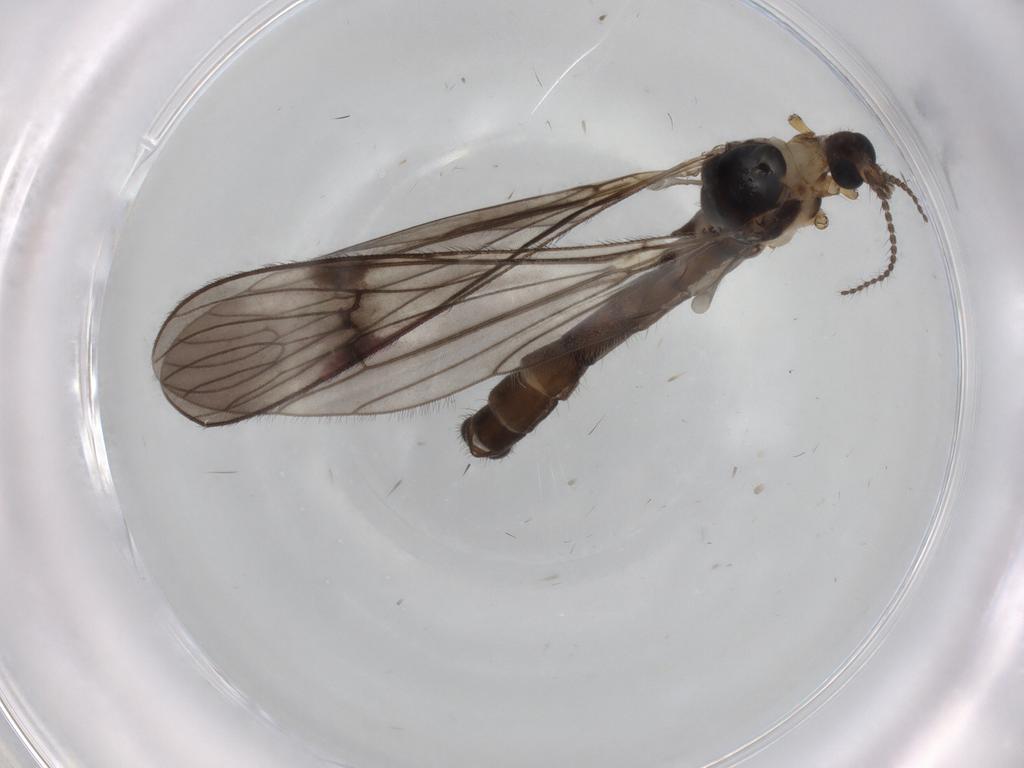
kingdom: Animalia
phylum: Arthropoda
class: Insecta
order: Diptera
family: Limoniidae
